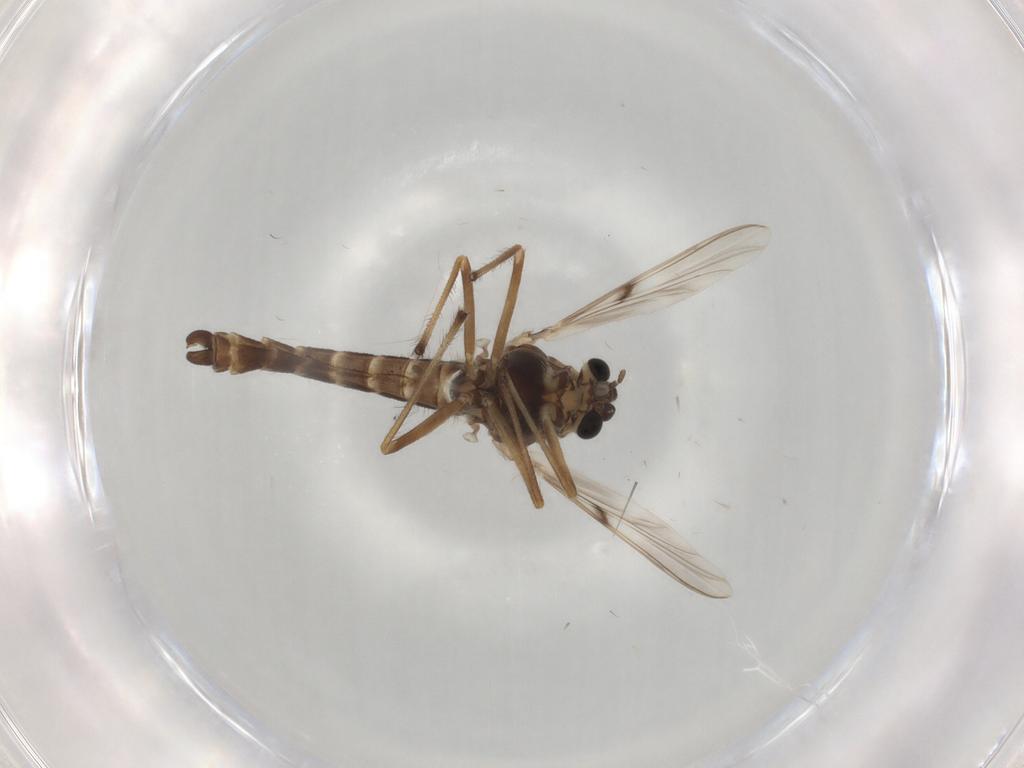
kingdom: Animalia
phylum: Arthropoda
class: Insecta
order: Diptera
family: Chironomidae
